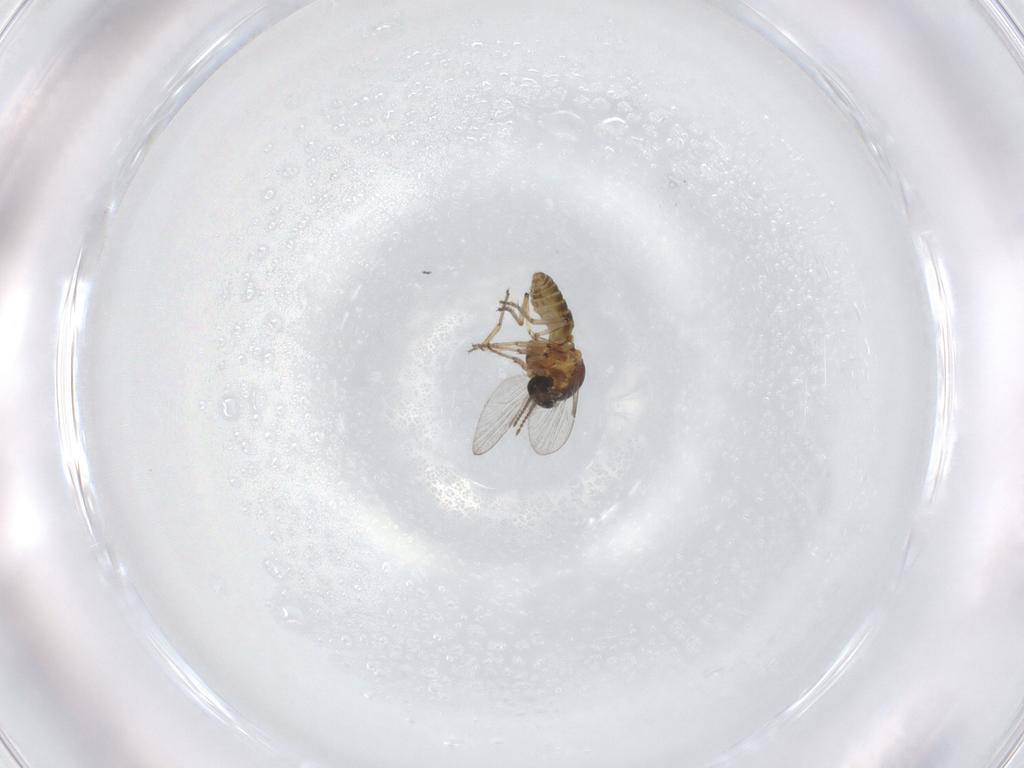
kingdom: Animalia
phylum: Arthropoda
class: Insecta
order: Diptera
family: Ceratopogonidae
